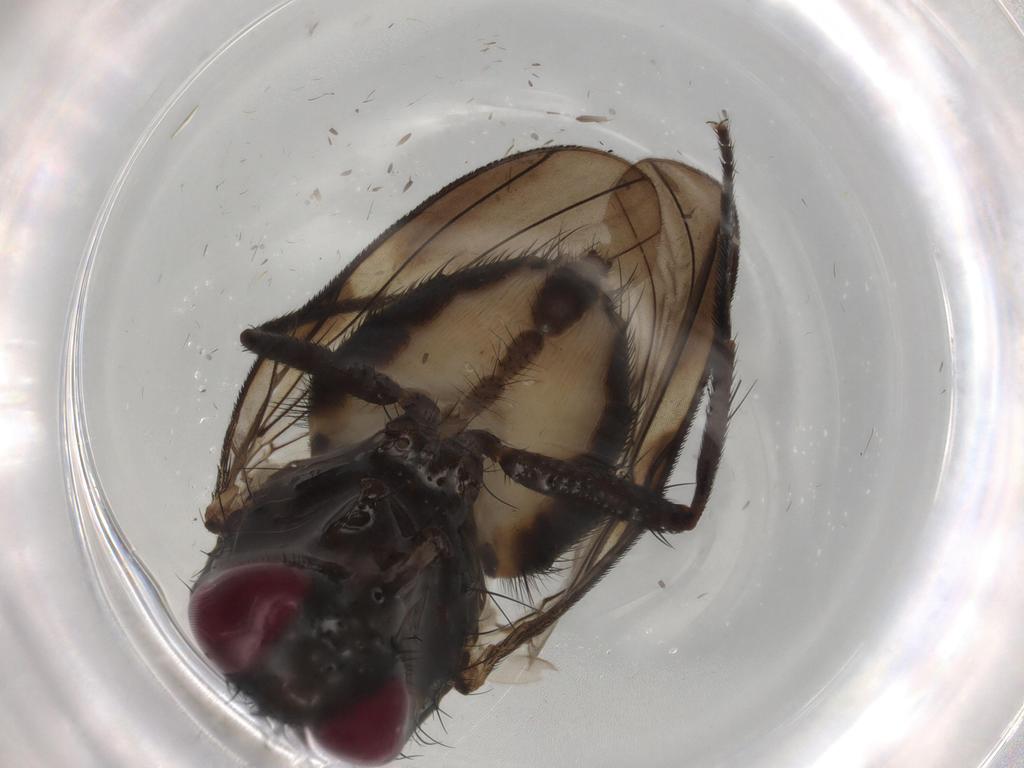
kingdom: Animalia
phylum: Arthropoda
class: Insecta
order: Diptera
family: Fannia
